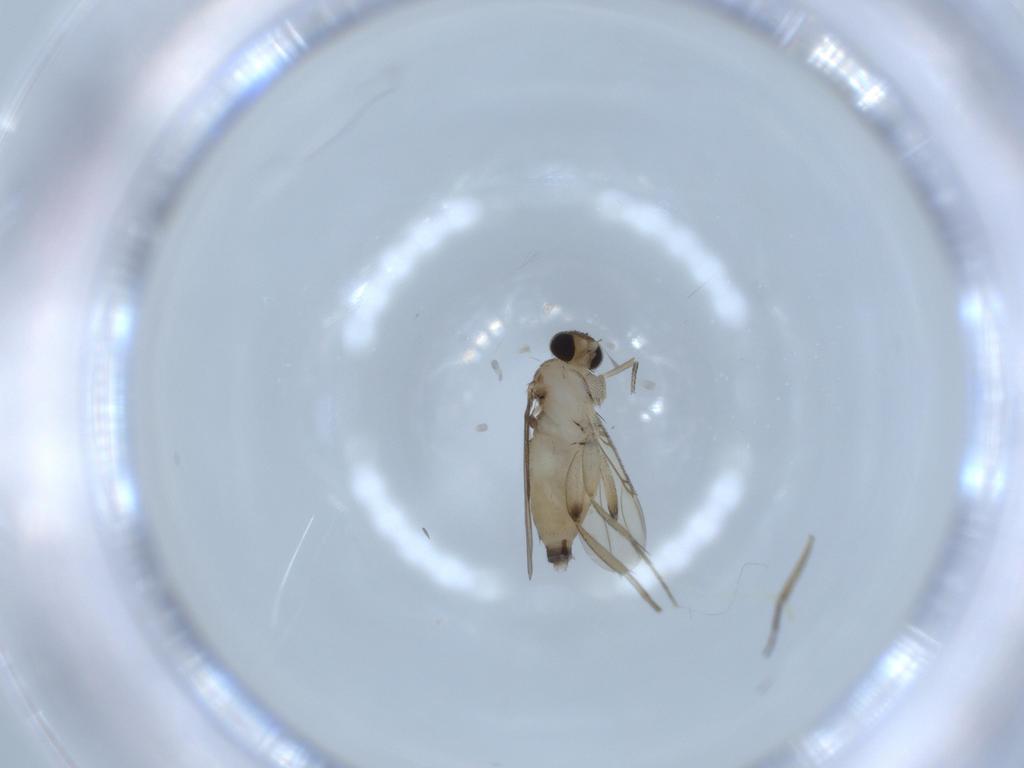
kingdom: Animalia
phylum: Arthropoda
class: Insecta
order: Diptera
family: Phoridae
